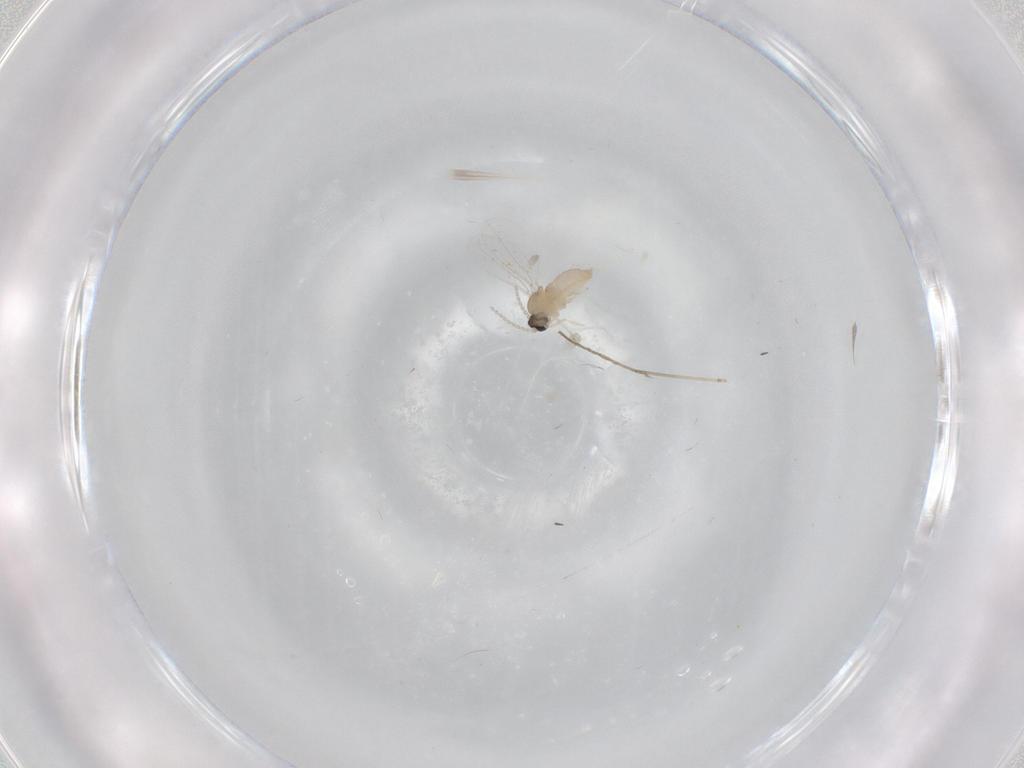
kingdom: Animalia
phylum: Arthropoda
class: Insecta
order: Diptera
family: Cecidomyiidae
